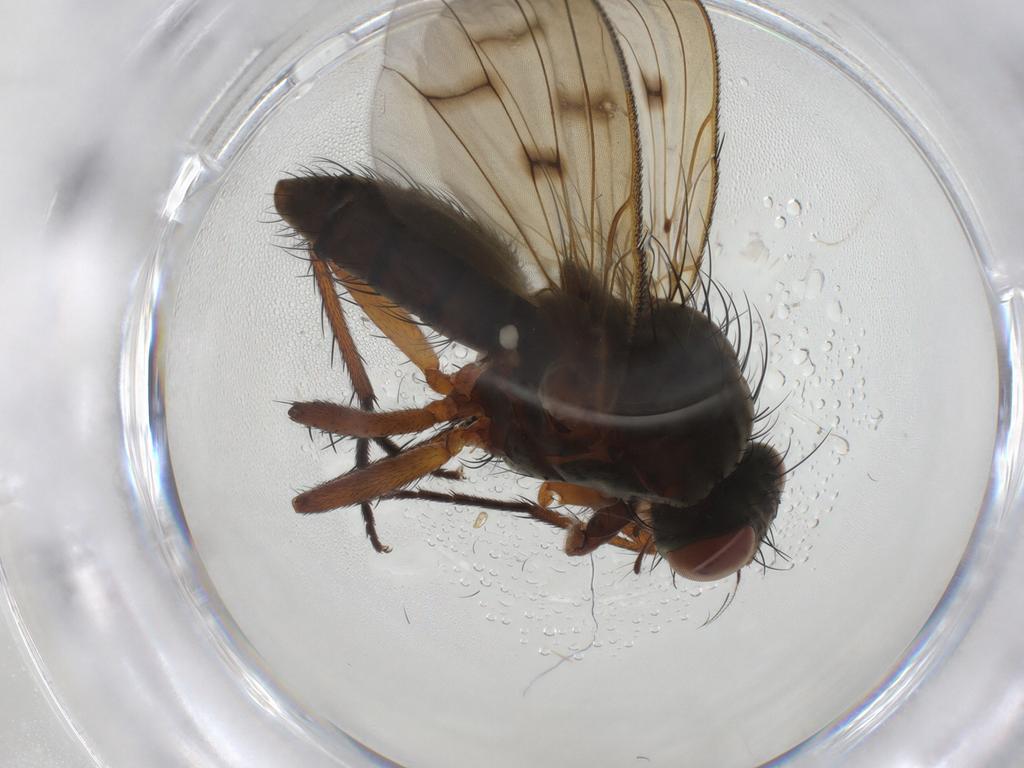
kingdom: Animalia
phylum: Arthropoda
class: Insecta
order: Diptera
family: Anthomyiidae
